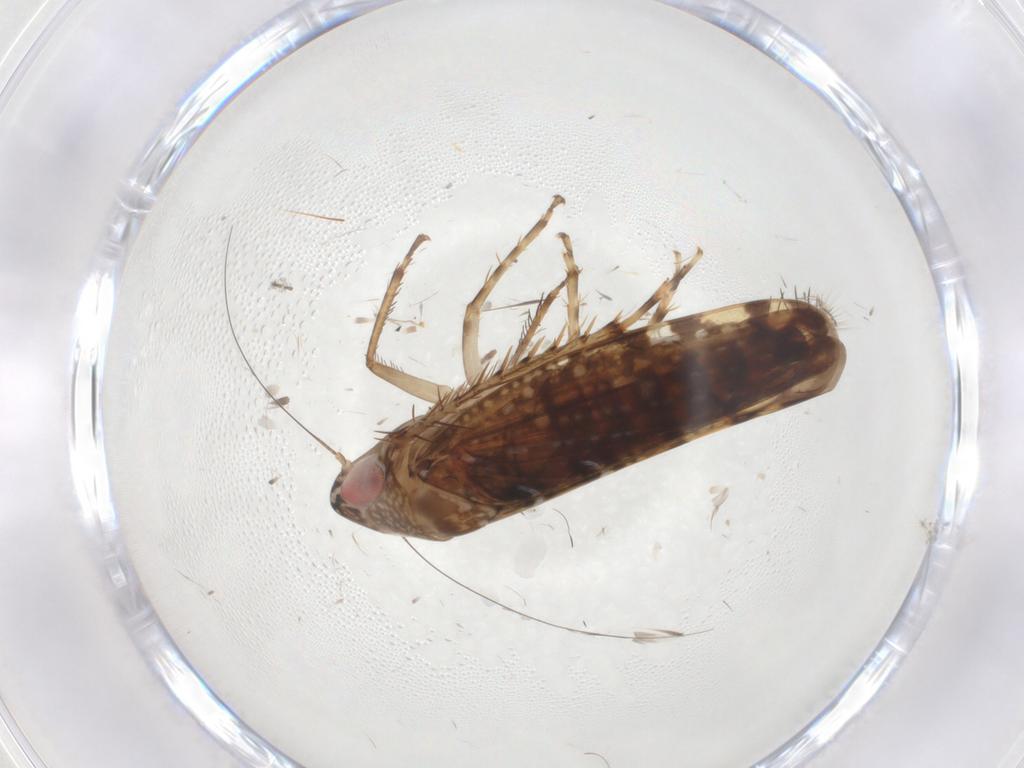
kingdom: Animalia
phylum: Arthropoda
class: Insecta
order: Hemiptera
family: Cicadellidae
